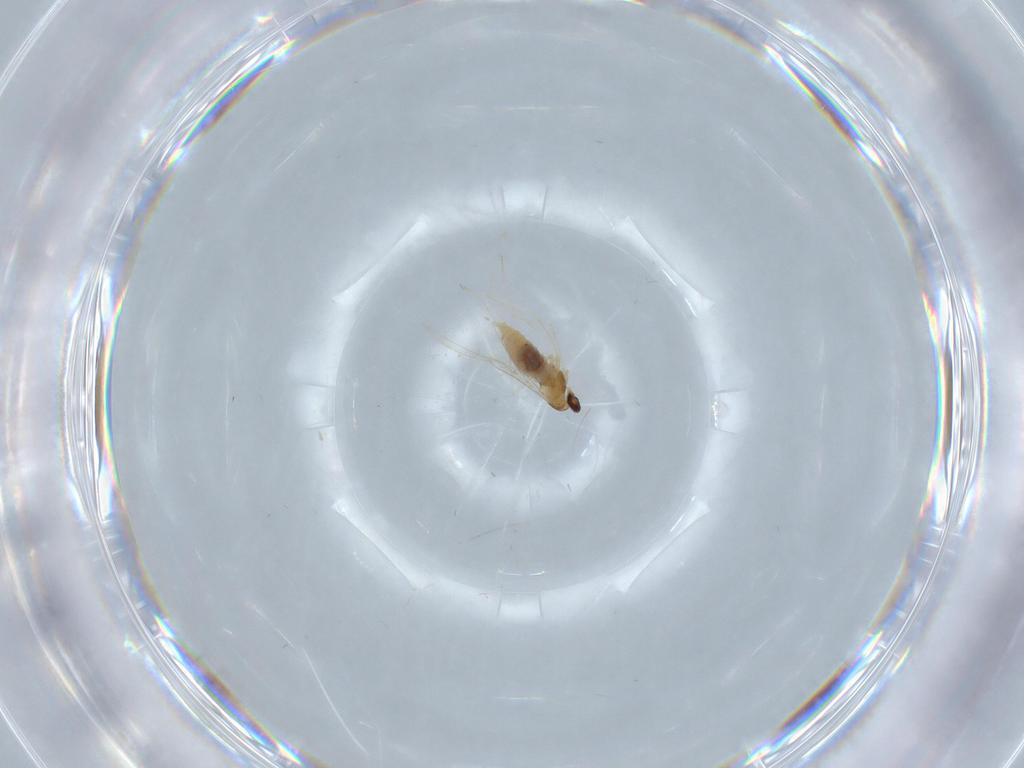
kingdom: Animalia
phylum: Arthropoda
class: Insecta
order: Diptera
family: Cecidomyiidae
